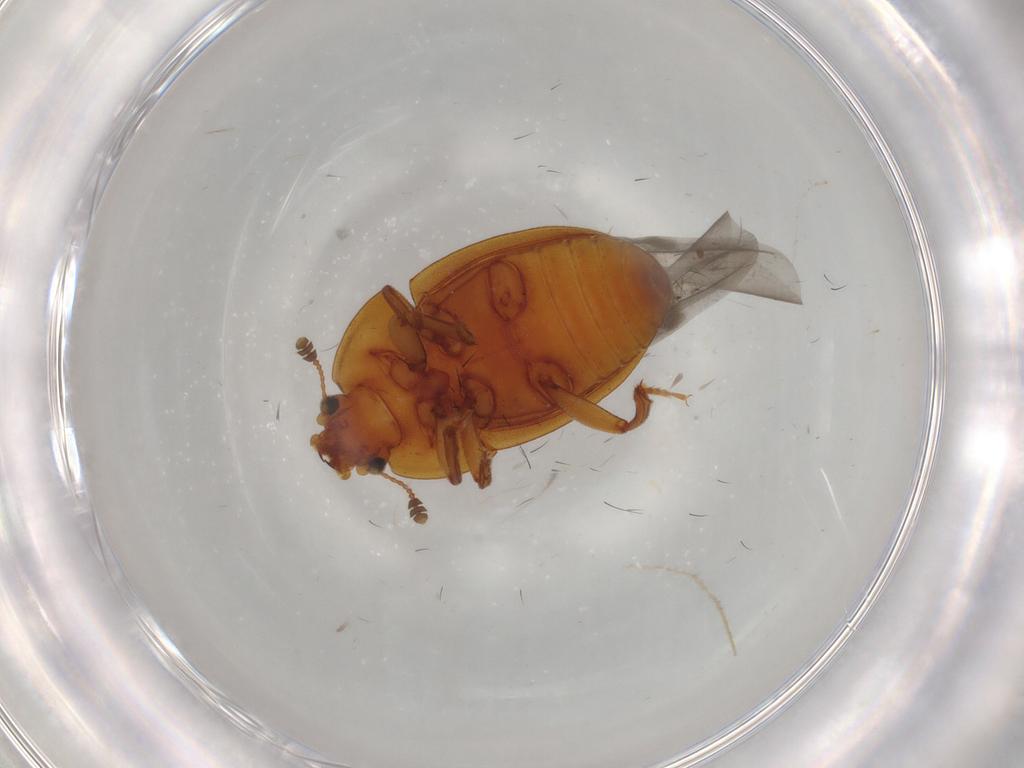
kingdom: Animalia
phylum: Arthropoda
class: Insecta
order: Coleoptera
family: Nitidulidae
